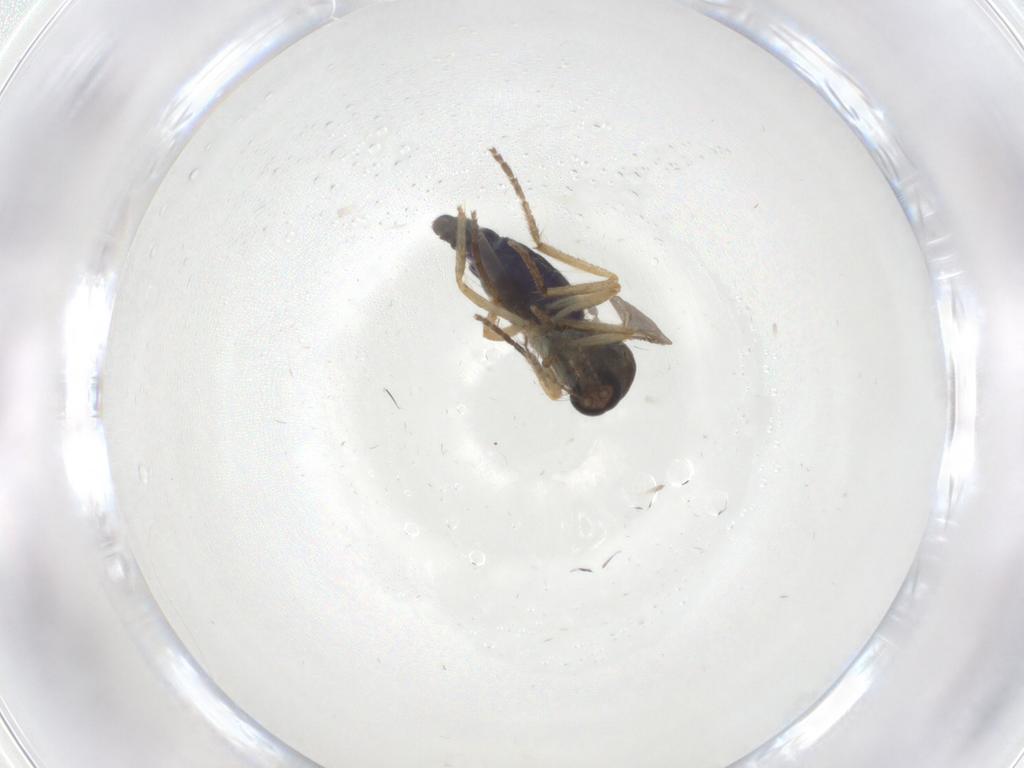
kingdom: Animalia
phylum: Arthropoda
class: Insecta
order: Diptera
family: Ceratopogonidae
